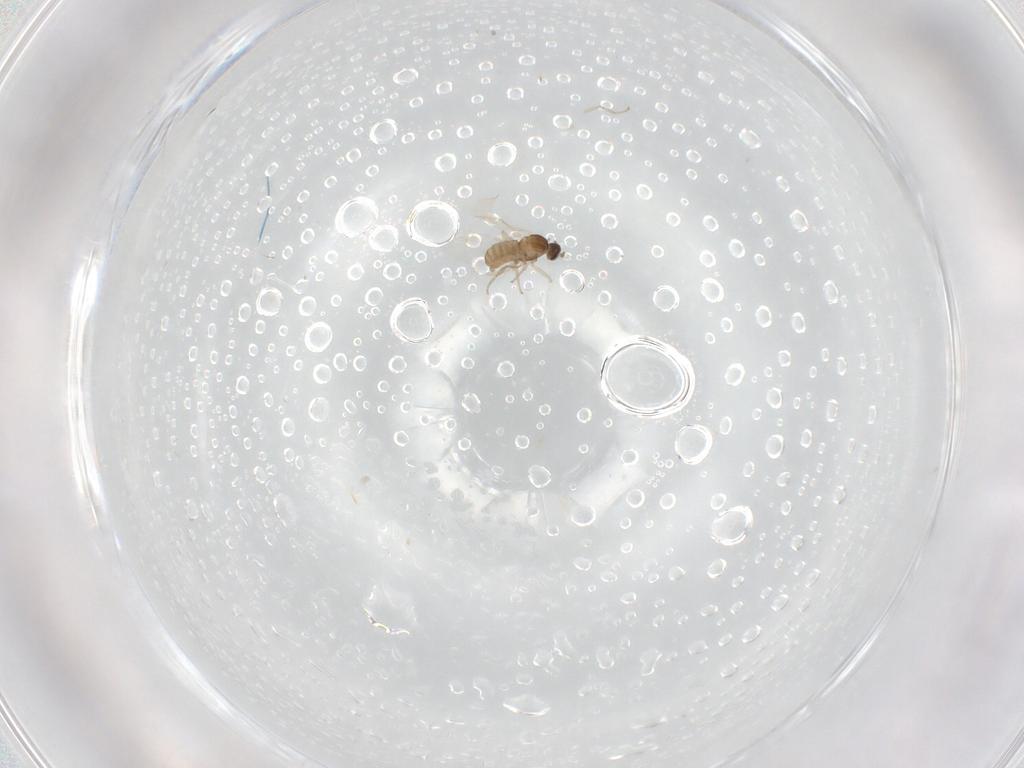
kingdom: Animalia
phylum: Arthropoda
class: Insecta
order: Diptera
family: Cecidomyiidae
